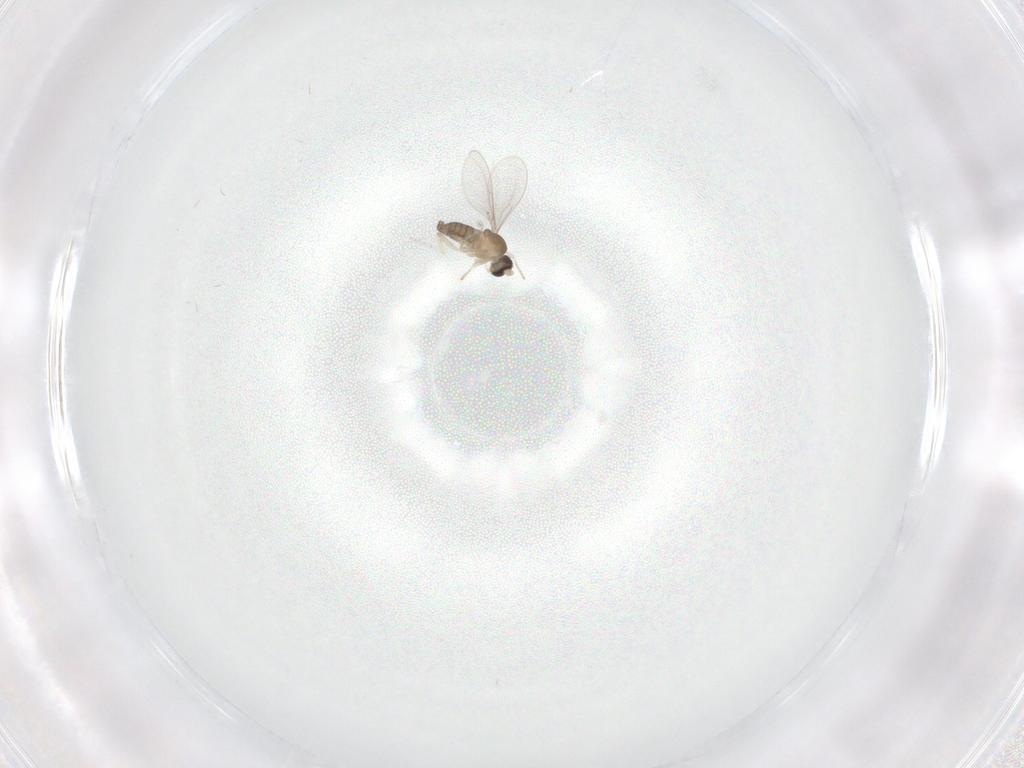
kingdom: Animalia
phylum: Arthropoda
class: Insecta
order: Diptera
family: Cecidomyiidae
